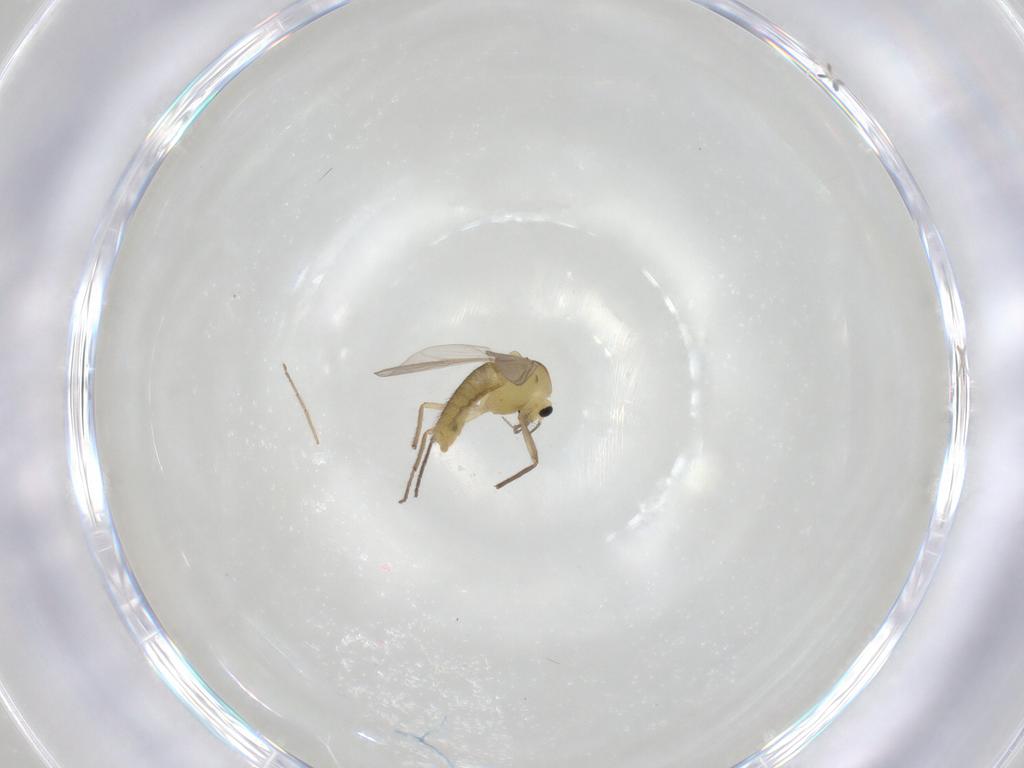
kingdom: Animalia
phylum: Arthropoda
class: Insecta
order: Diptera
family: Chironomidae
